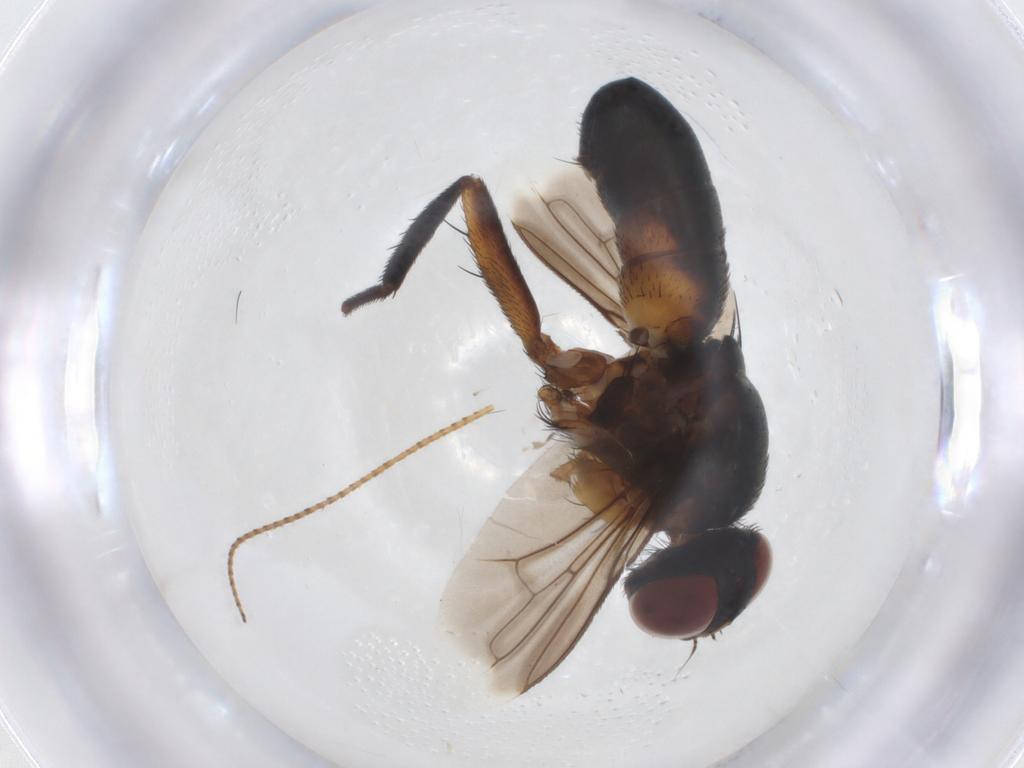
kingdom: Animalia
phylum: Arthropoda
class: Insecta
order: Diptera
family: Tachinidae
